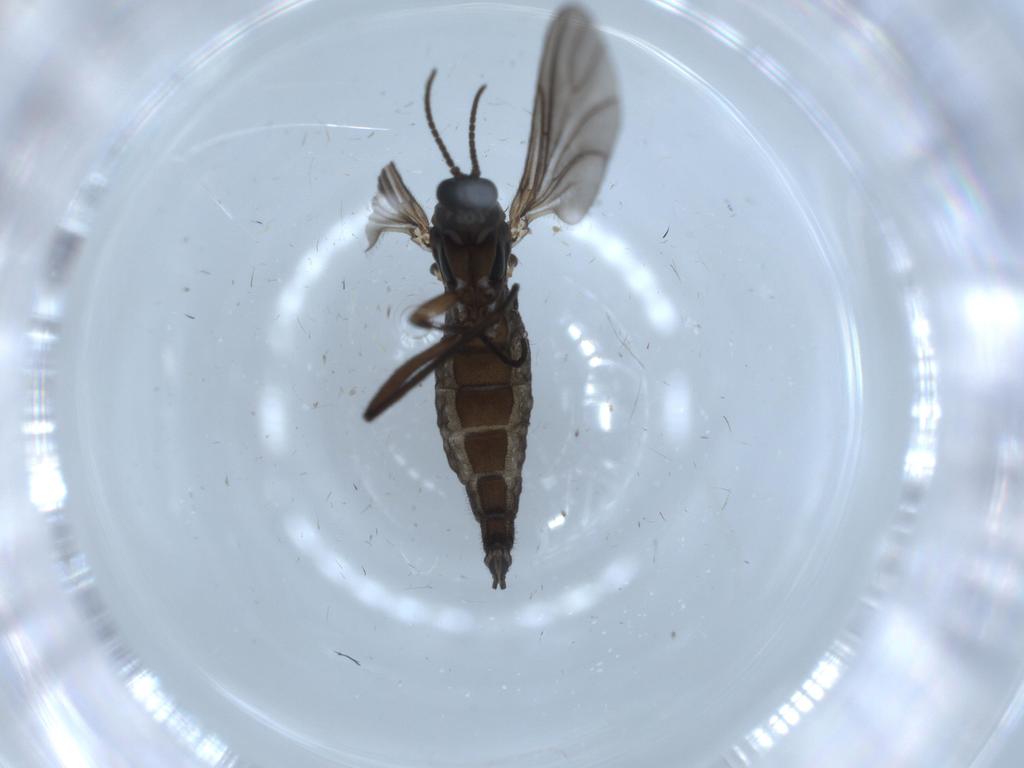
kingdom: Animalia
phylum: Arthropoda
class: Insecta
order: Diptera
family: Sciaridae
